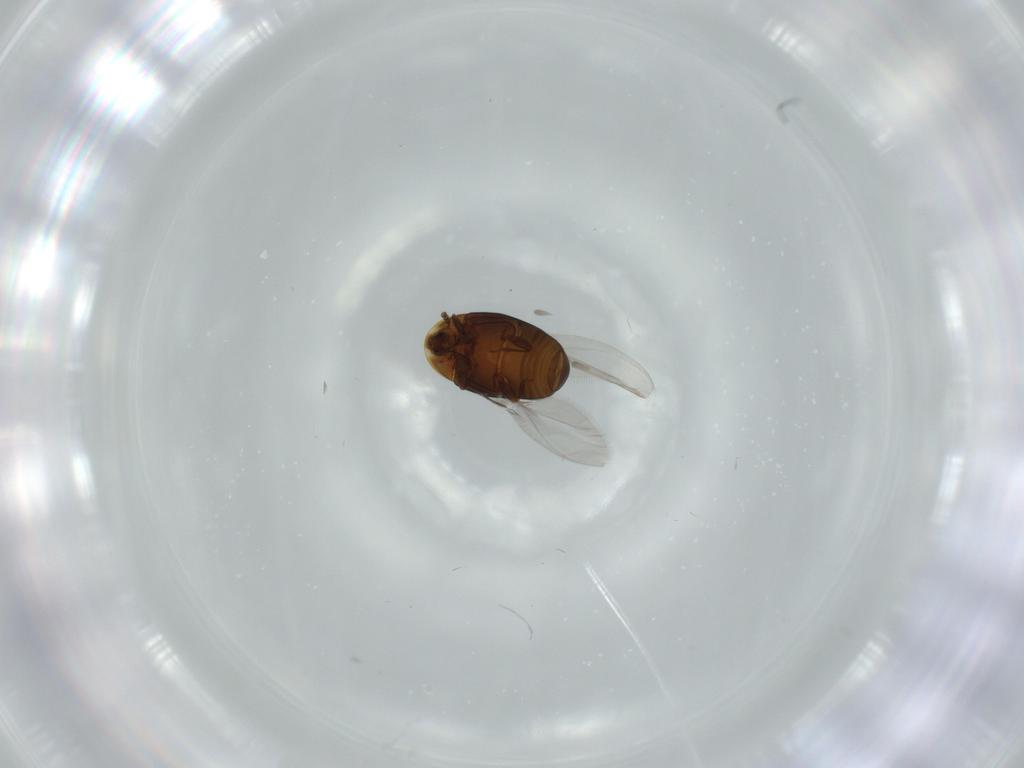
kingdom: Animalia
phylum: Arthropoda
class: Insecta
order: Coleoptera
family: Corylophidae
